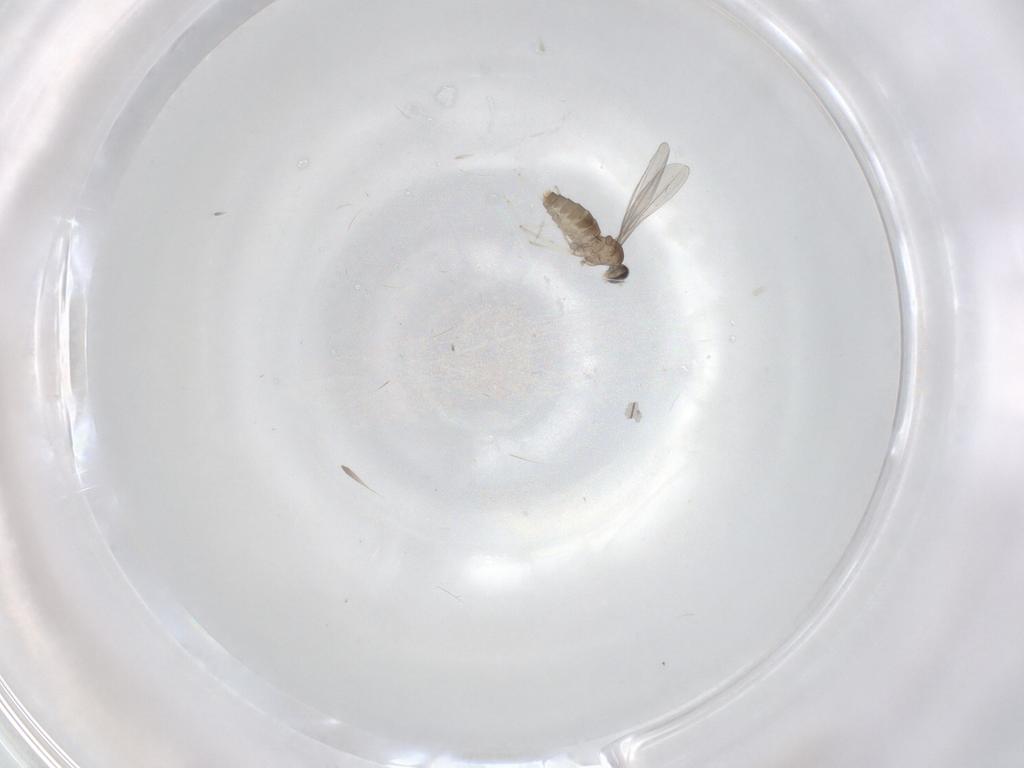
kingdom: Animalia
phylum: Arthropoda
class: Insecta
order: Diptera
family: Cecidomyiidae
